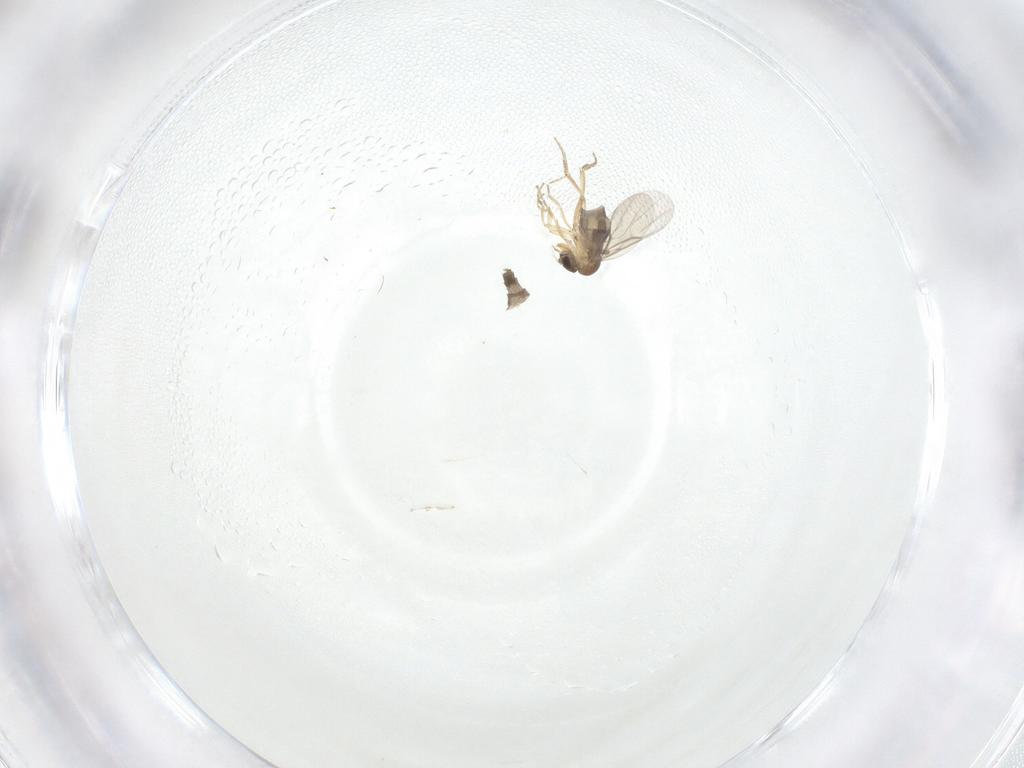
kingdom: Animalia
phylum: Arthropoda
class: Insecta
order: Diptera
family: Phoridae
